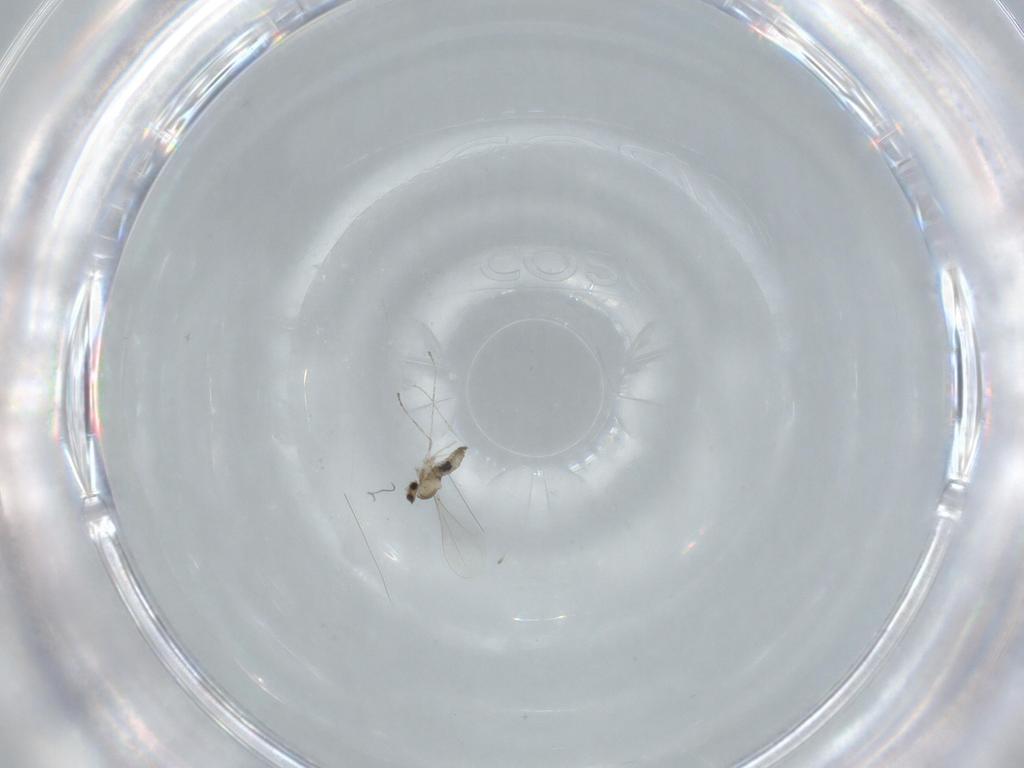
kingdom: Animalia
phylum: Arthropoda
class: Insecta
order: Diptera
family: Cecidomyiidae
